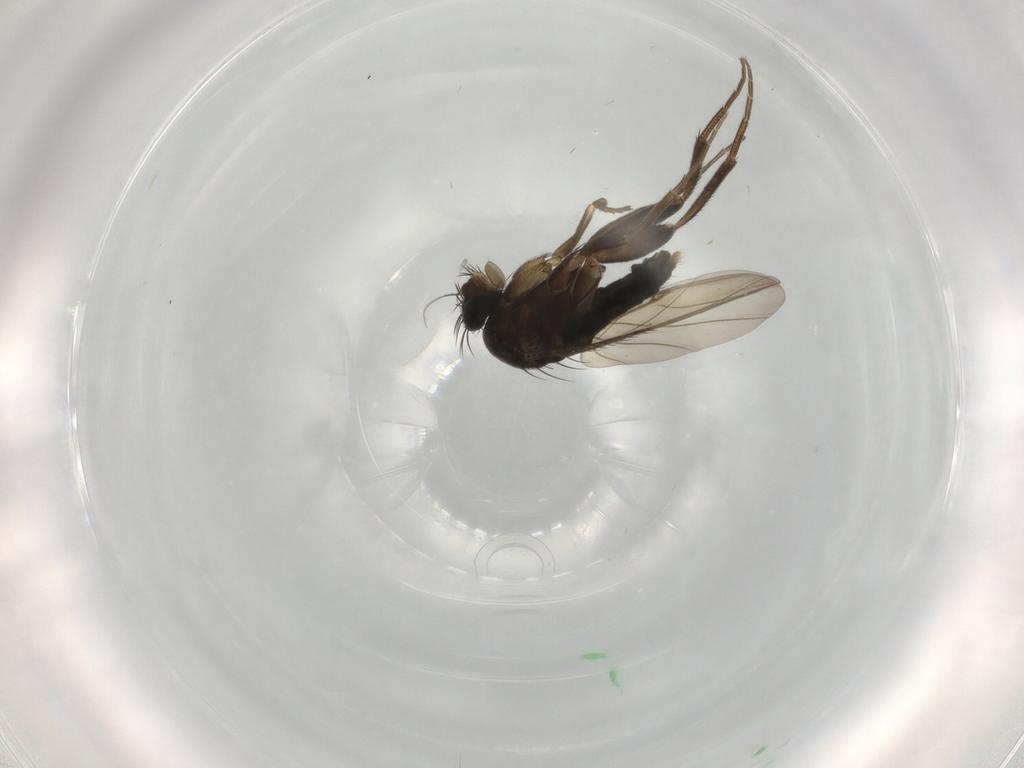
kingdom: Animalia
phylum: Arthropoda
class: Insecta
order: Diptera
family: Phoridae
